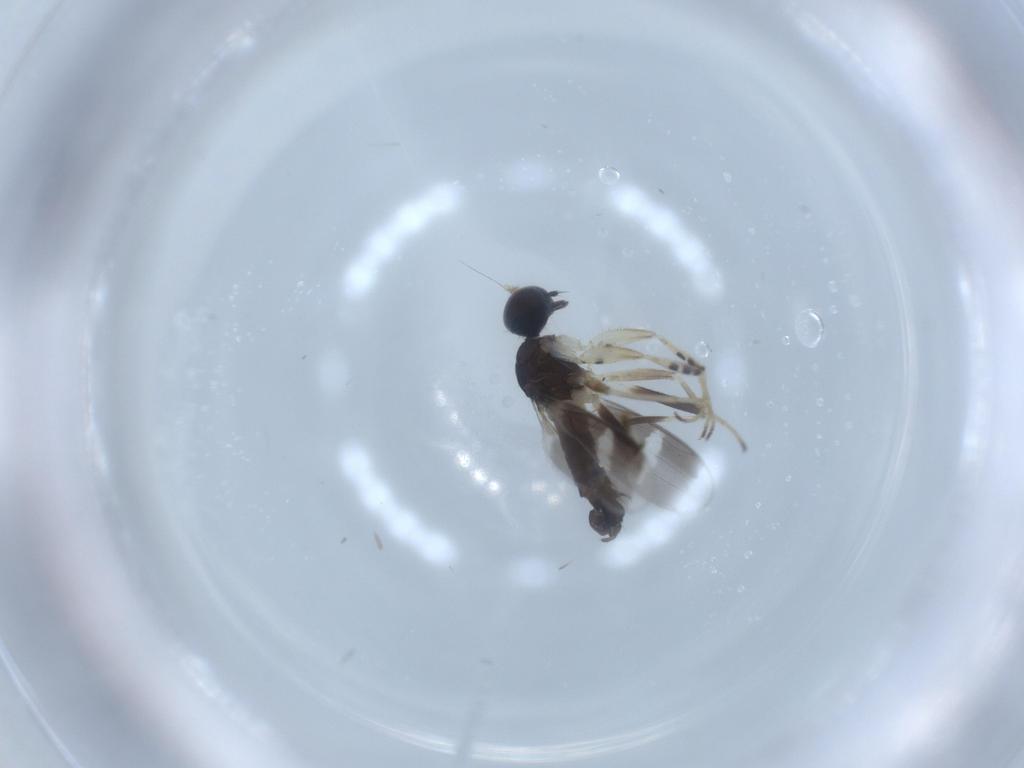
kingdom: Animalia
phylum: Arthropoda
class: Insecta
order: Diptera
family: Hybotidae
